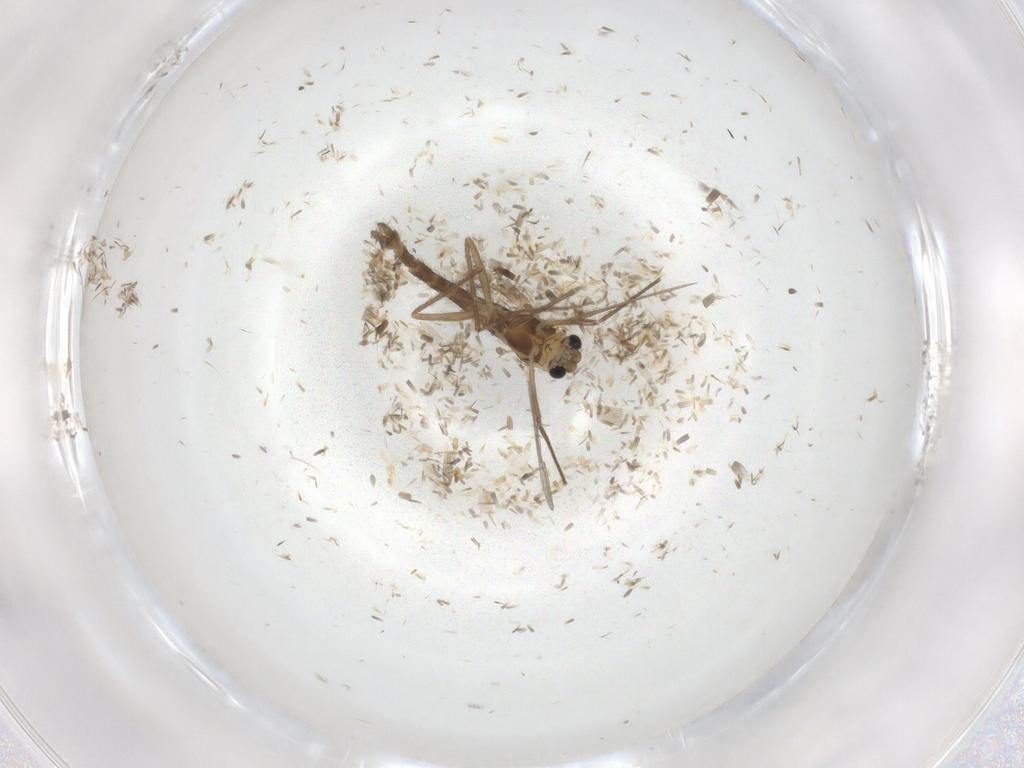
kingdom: Animalia
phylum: Arthropoda
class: Insecta
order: Diptera
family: Chironomidae
